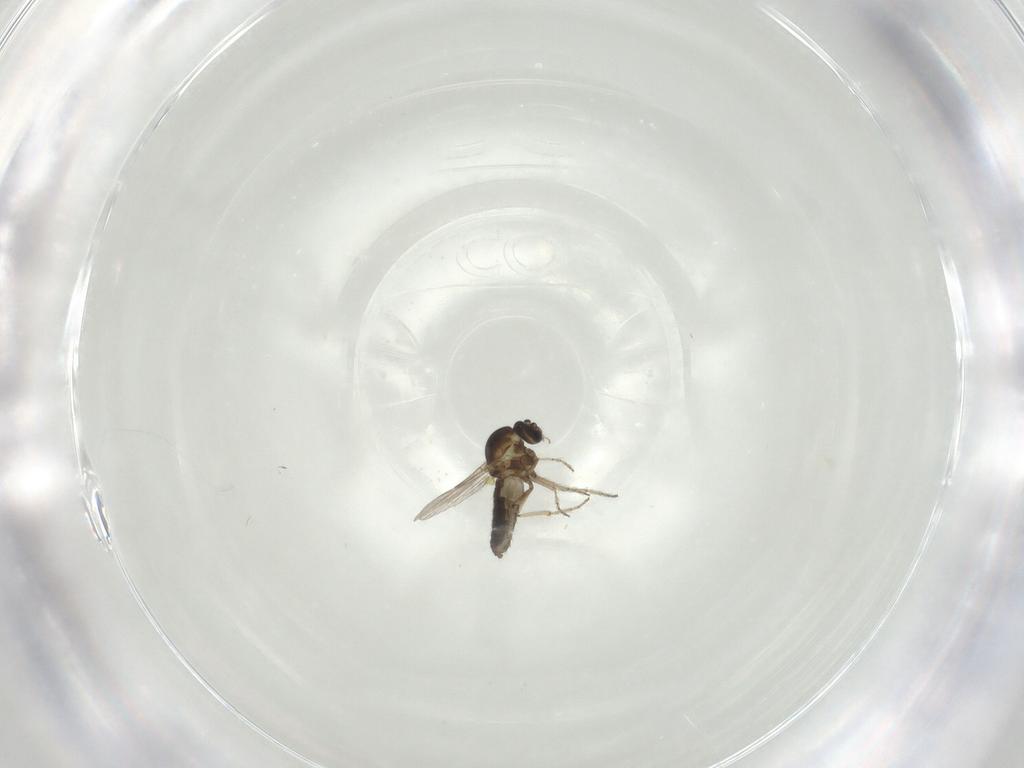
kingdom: Animalia
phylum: Arthropoda
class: Insecta
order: Diptera
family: Ceratopogonidae
